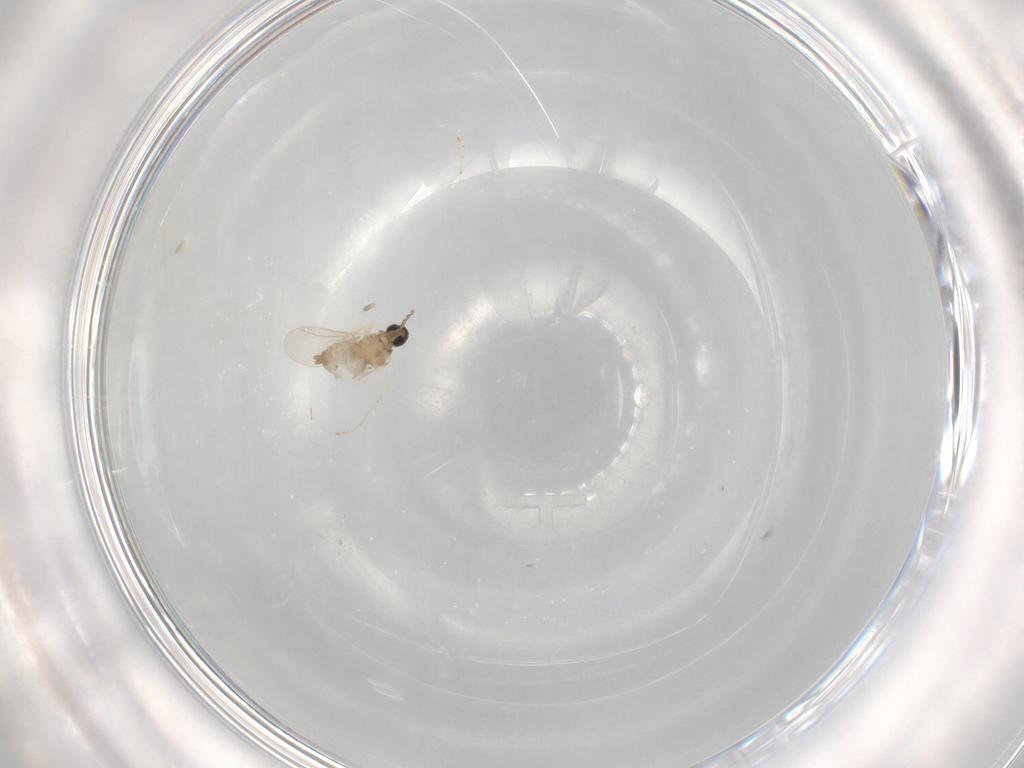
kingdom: Animalia
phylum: Arthropoda
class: Insecta
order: Diptera
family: Cecidomyiidae
